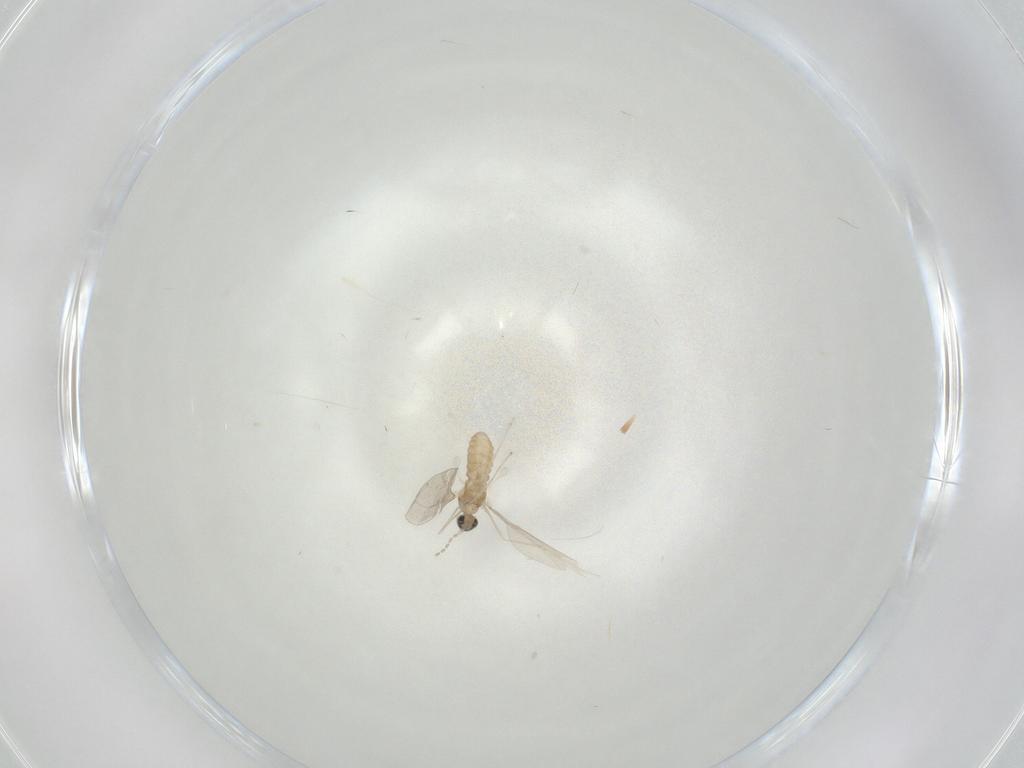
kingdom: Animalia
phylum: Arthropoda
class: Insecta
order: Diptera
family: Cecidomyiidae
